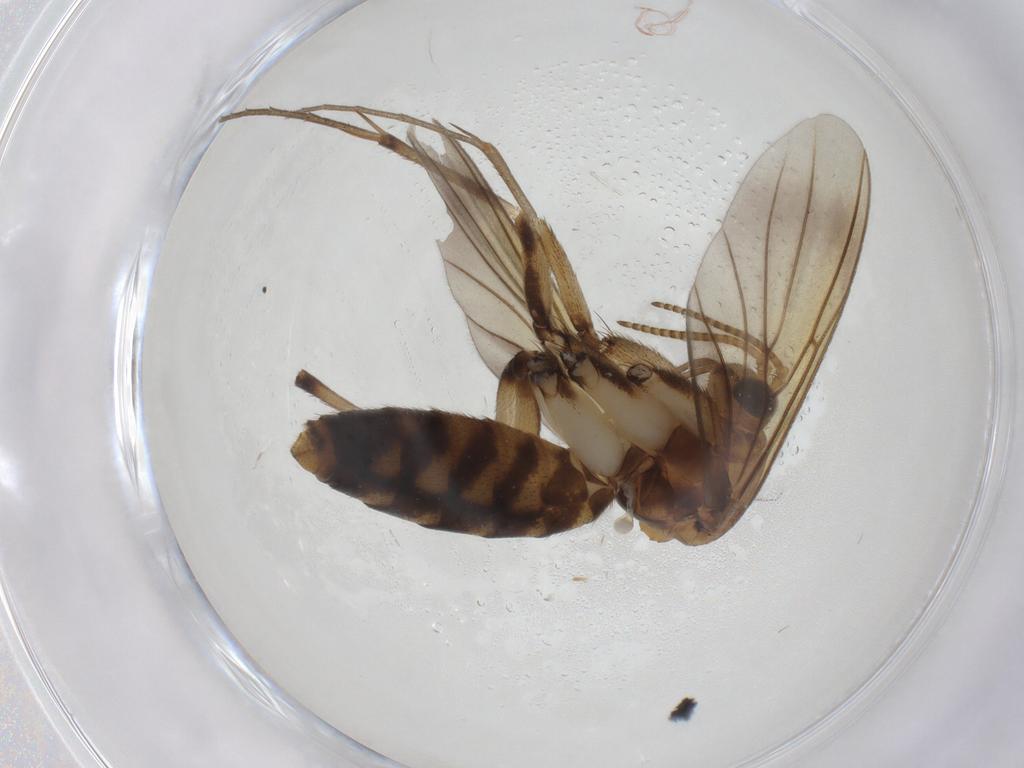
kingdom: Animalia
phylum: Arthropoda
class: Insecta
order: Diptera
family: Mycetophilidae
